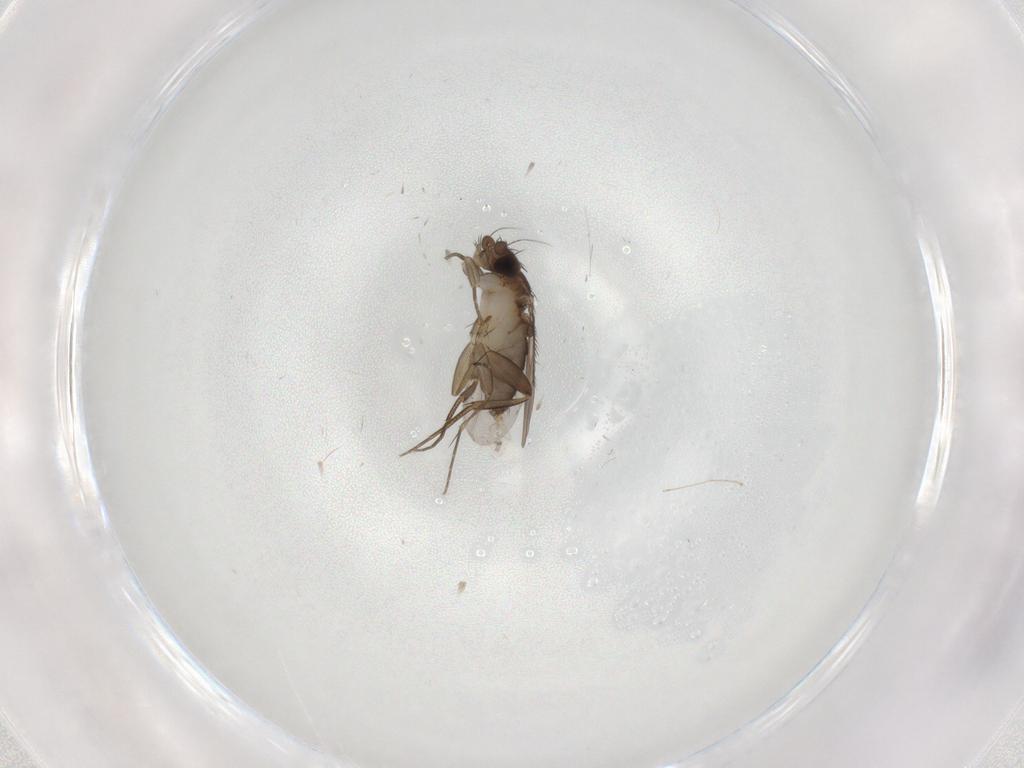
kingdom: Animalia
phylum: Arthropoda
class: Insecta
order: Diptera
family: Phoridae
